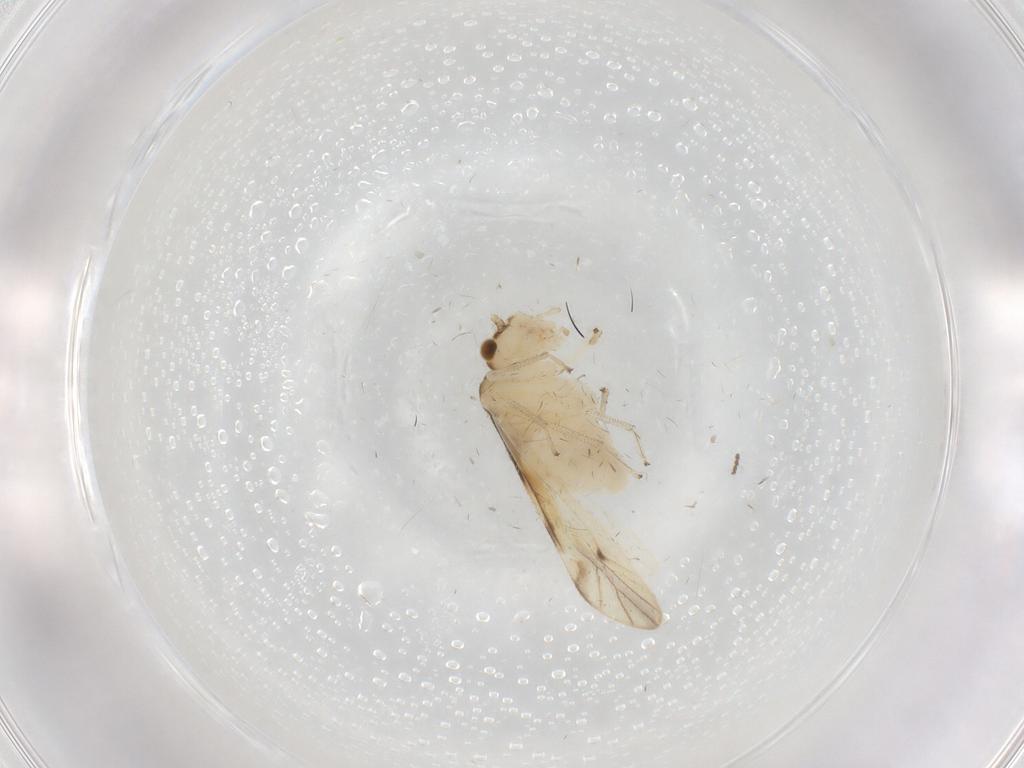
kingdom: Animalia
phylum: Arthropoda
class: Insecta
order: Psocodea
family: Caeciliusidae
